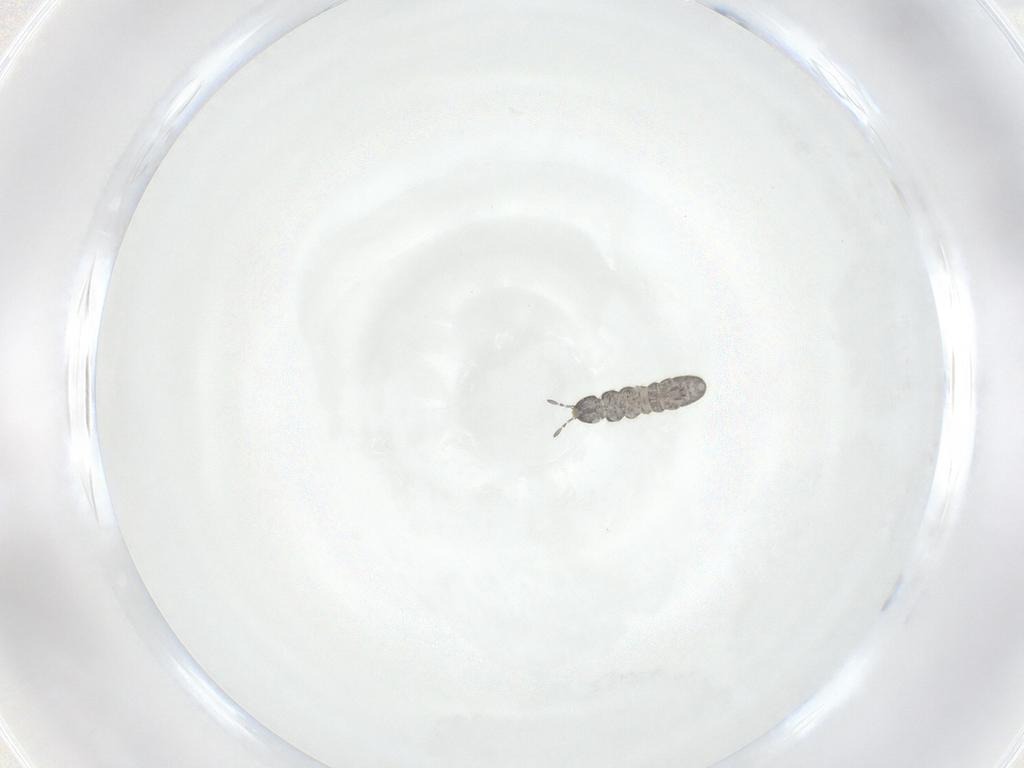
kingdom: Animalia
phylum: Arthropoda
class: Collembola
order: Entomobryomorpha
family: Isotomidae
